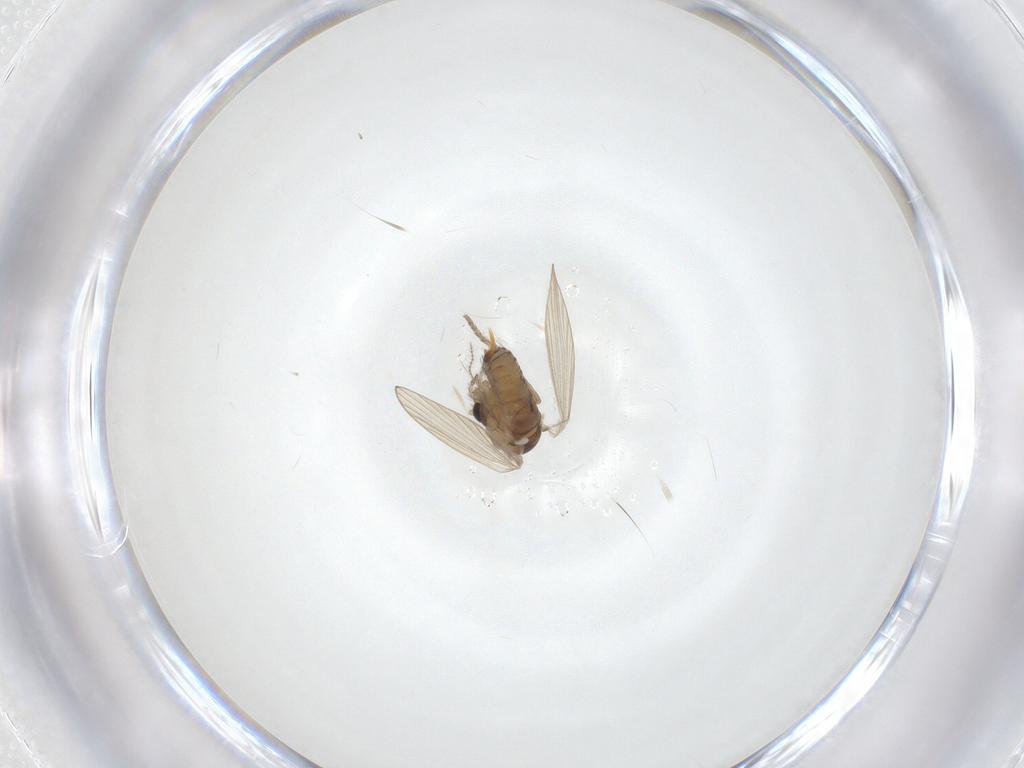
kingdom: Animalia
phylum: Arthropoda
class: Insecta
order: Diptera
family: Psychodidae
